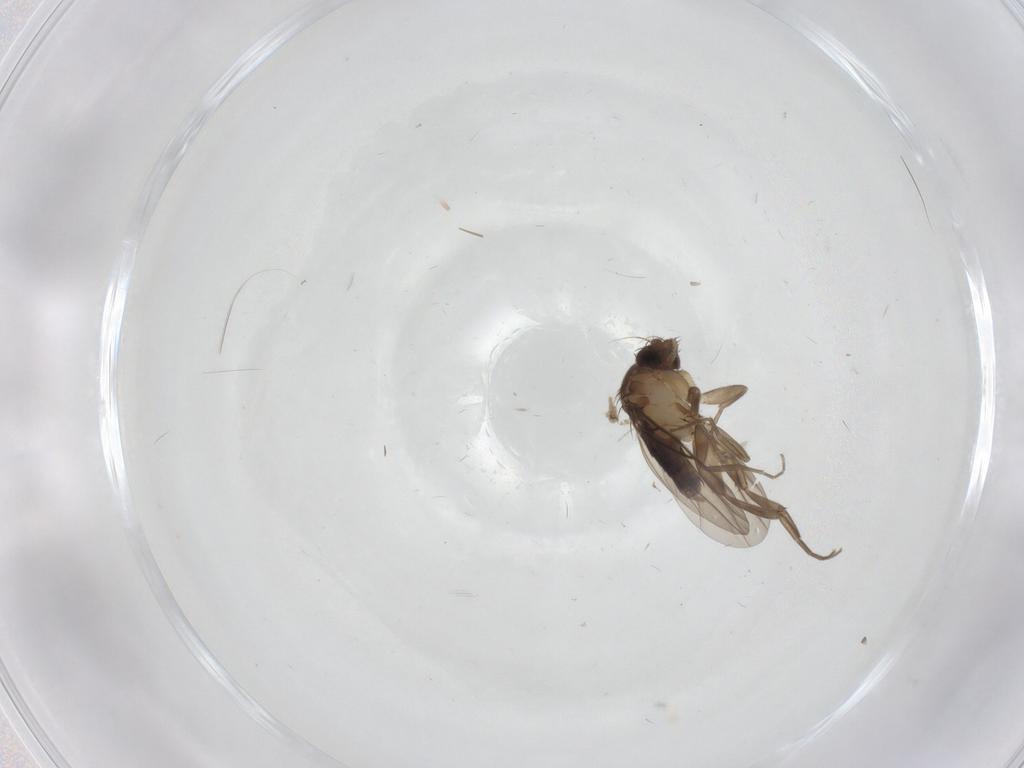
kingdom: Animalia
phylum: Arthropoda
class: Insecta
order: Diptera
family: Phoridae
